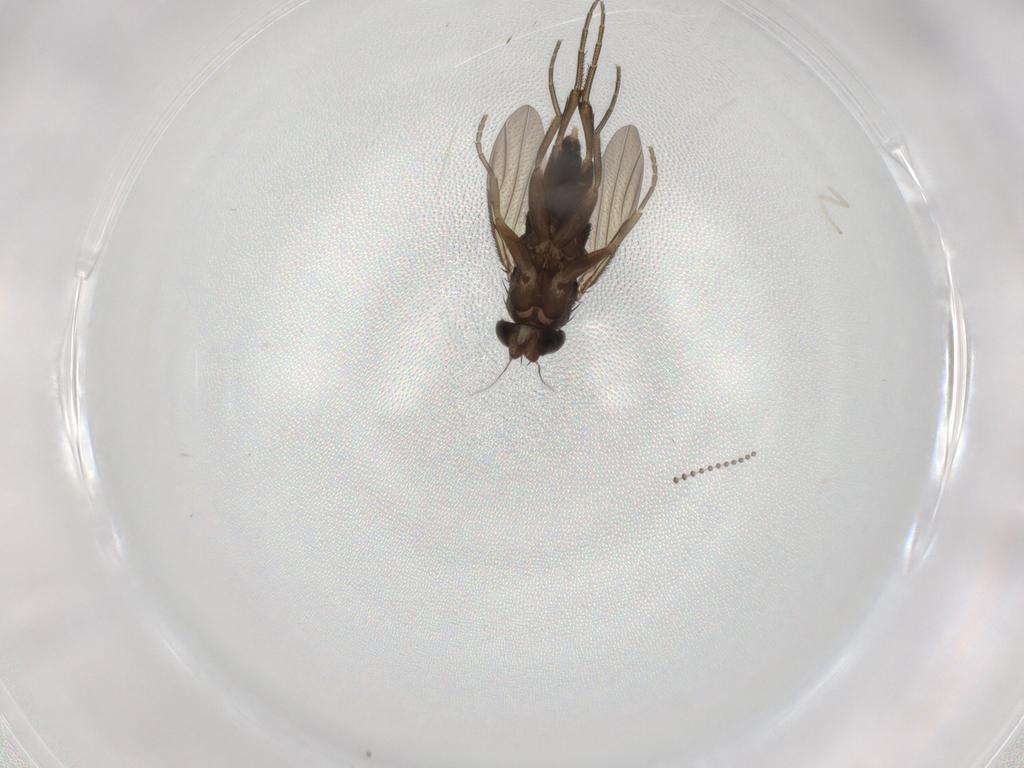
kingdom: Animalia
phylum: Arthropoda
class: Insecta
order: Diptera
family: Phoridae
